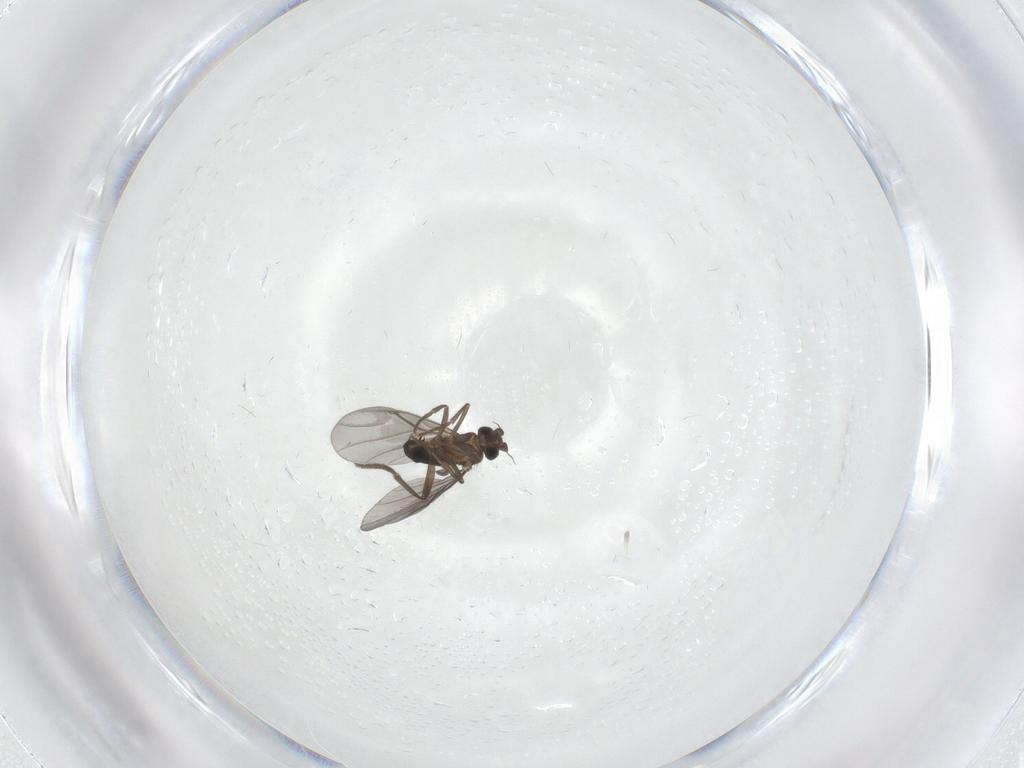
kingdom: Animalia
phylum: Arthropoda
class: Insecta
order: Diptera
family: Phoridae
